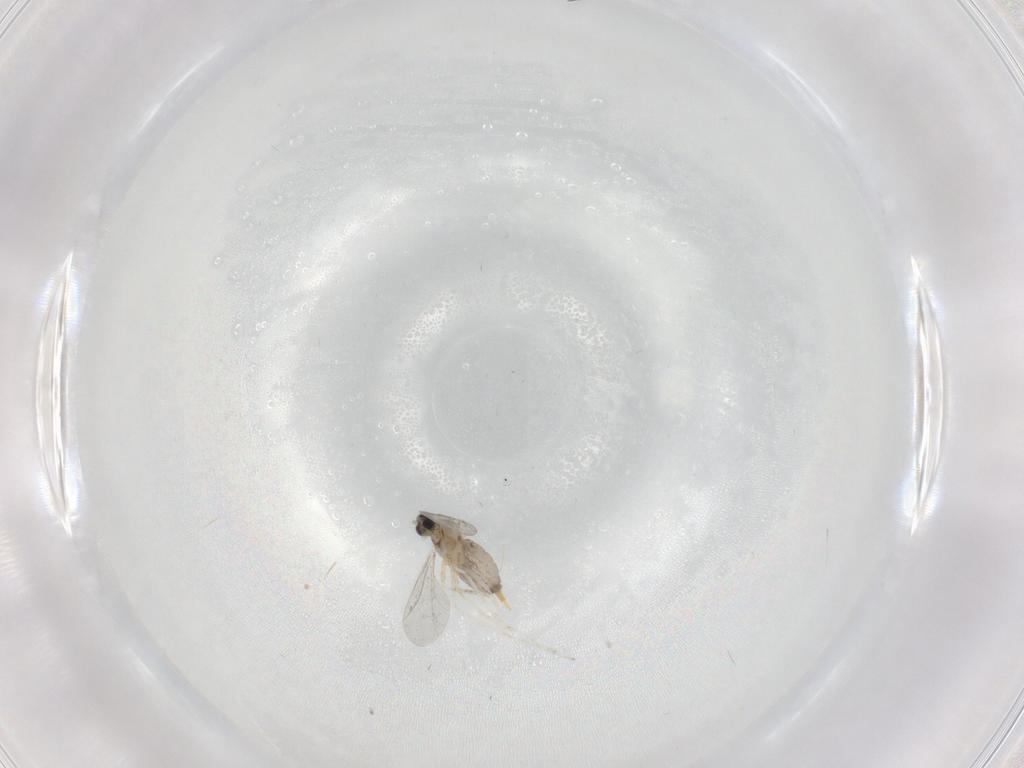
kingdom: Animalia
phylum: Arthropoda
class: Insecta
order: Diptera
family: Cecidomyiidae
